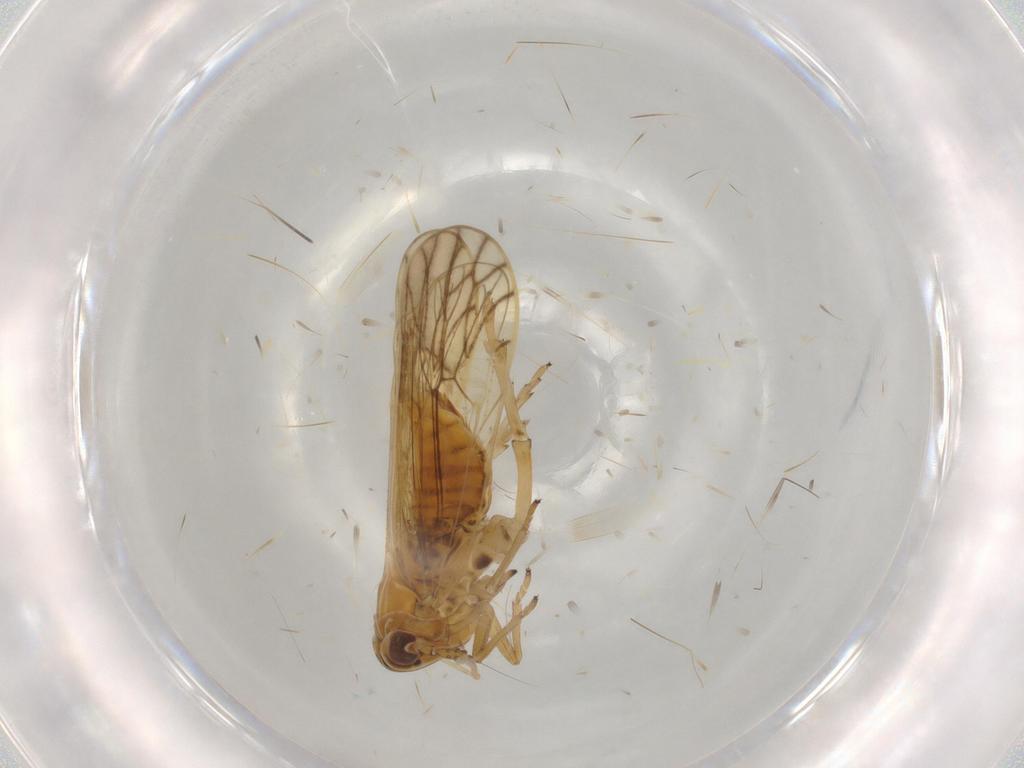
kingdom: Animalia
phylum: Arthropoda
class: Insecta
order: Hemiptera
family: Delphacidae
